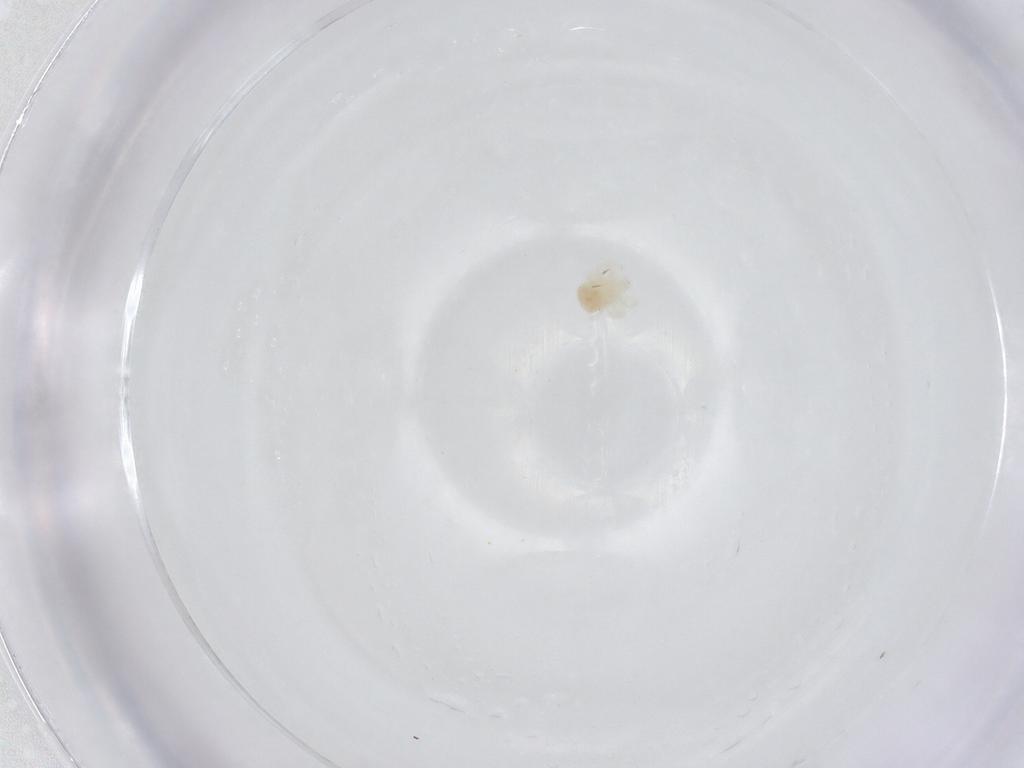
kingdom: Animalia
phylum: Arthropoda
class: Arachnida
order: Trombidiformes
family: Anystidae
